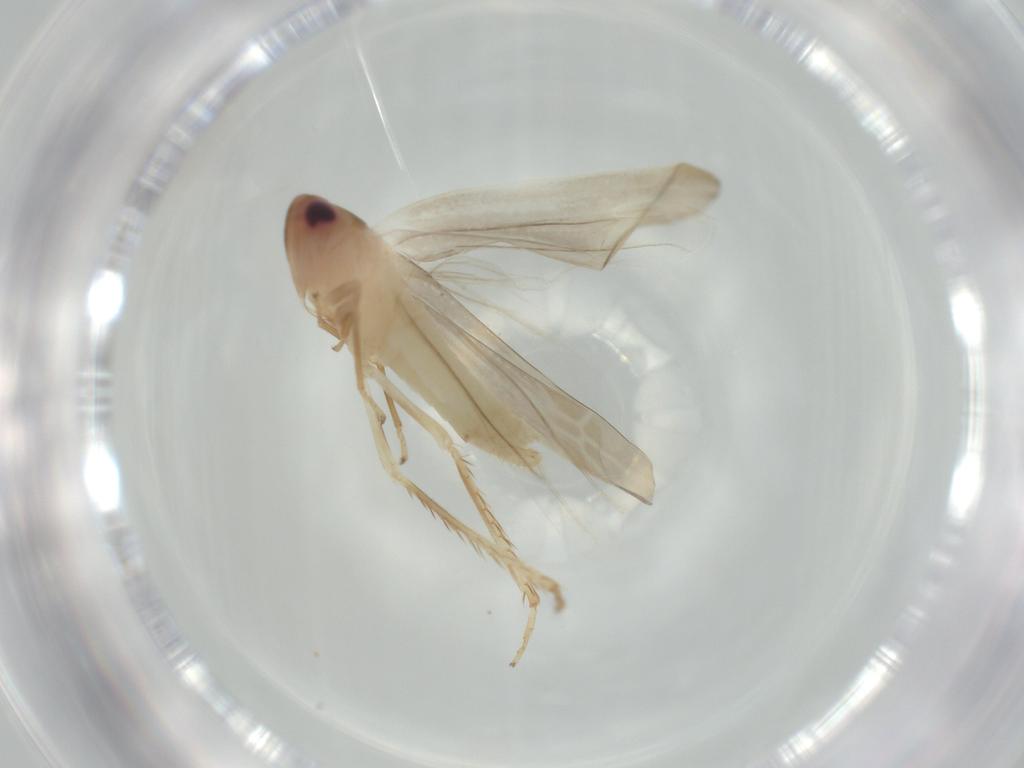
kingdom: Animalia
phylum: Arthropoda
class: Insecta
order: Hemiptera
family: Cicadellidae
